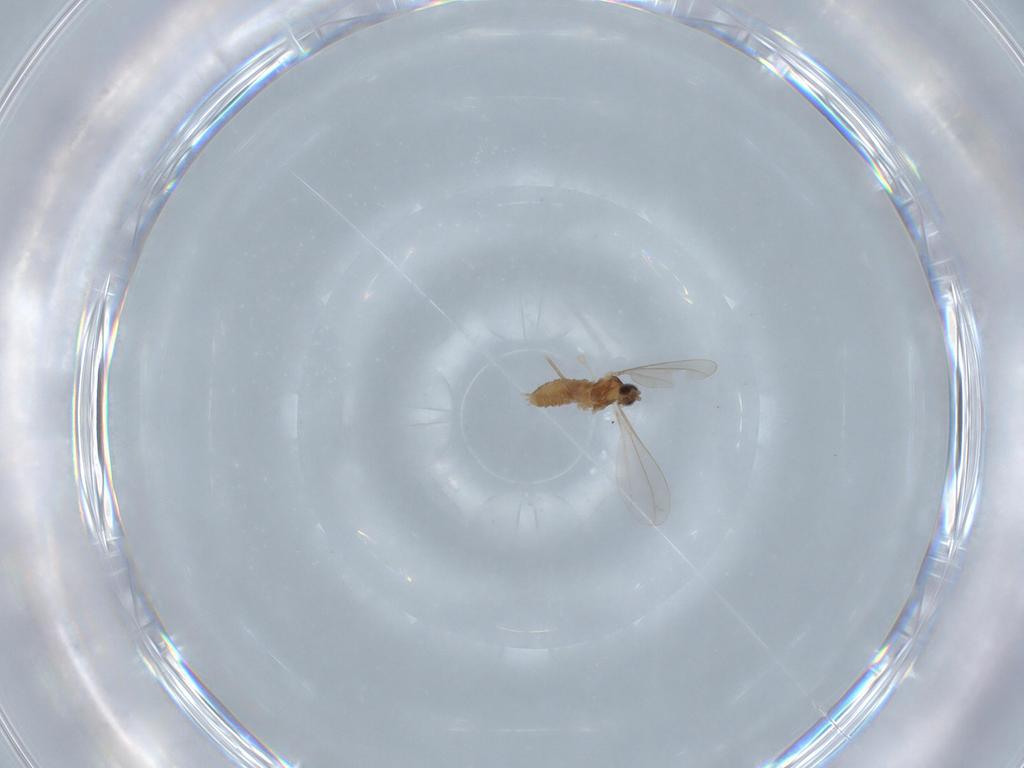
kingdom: Animalia
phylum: Arthropoda
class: Insecta
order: Diptera
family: Cecidomyiidae
